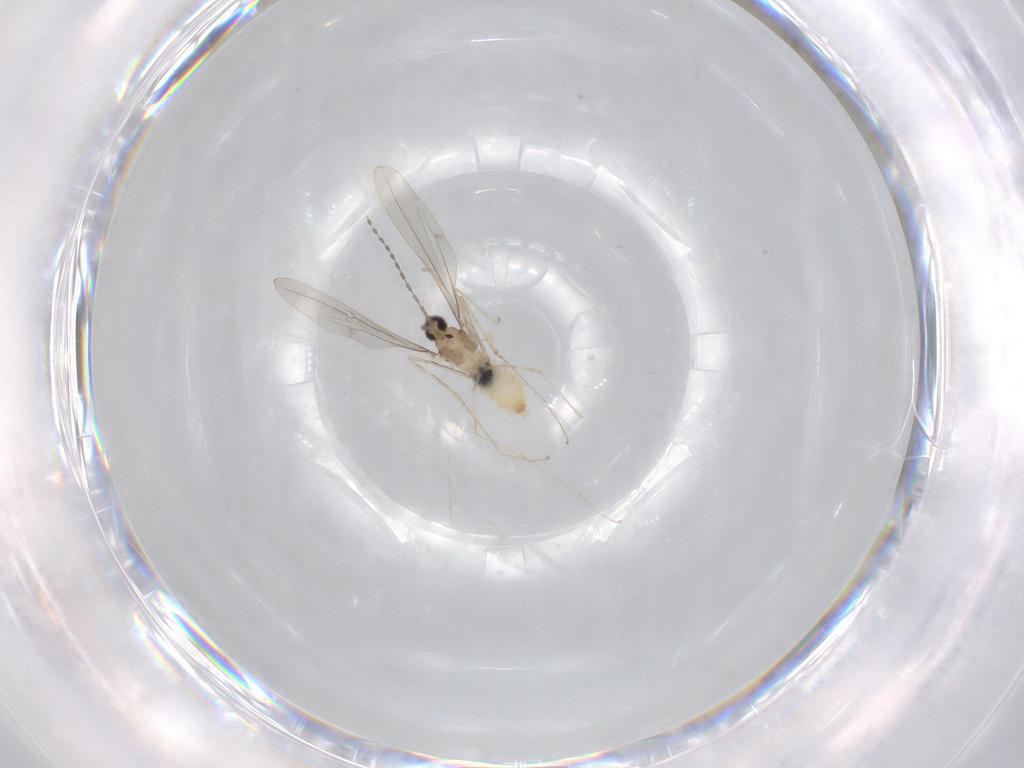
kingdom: Animalia
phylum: Arthropoda
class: Insecta
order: Diptera
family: Cecidomyiidae
